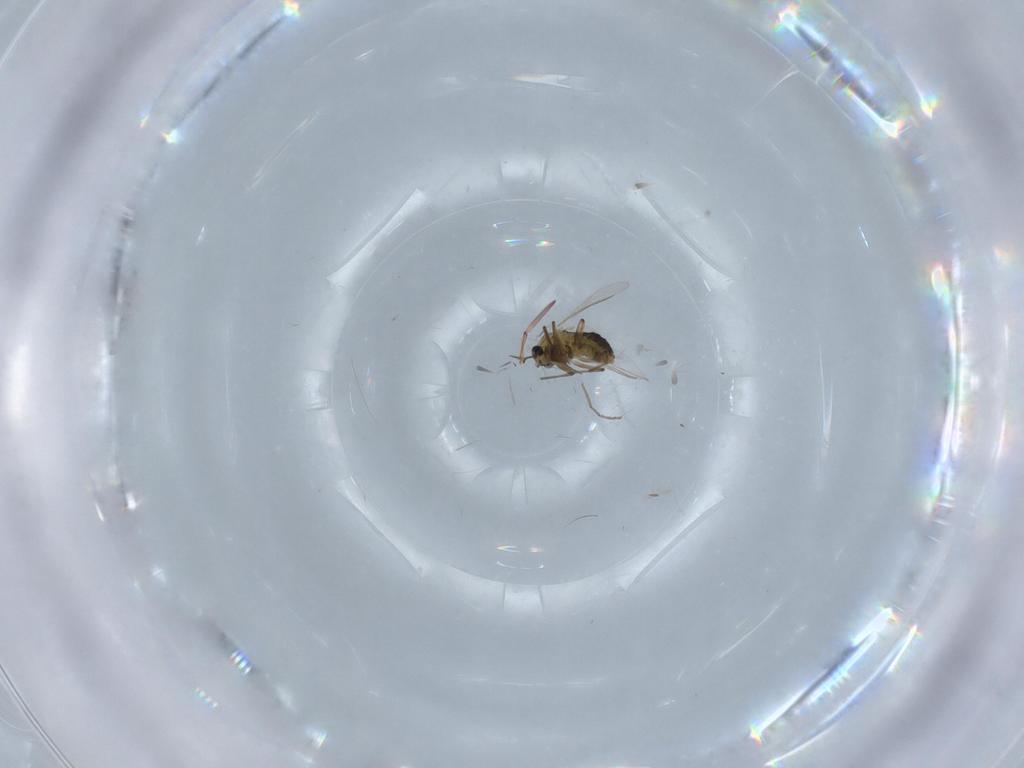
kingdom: Animalia
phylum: Arthropoda
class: Insecta
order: Diptera
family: Chironomidae
